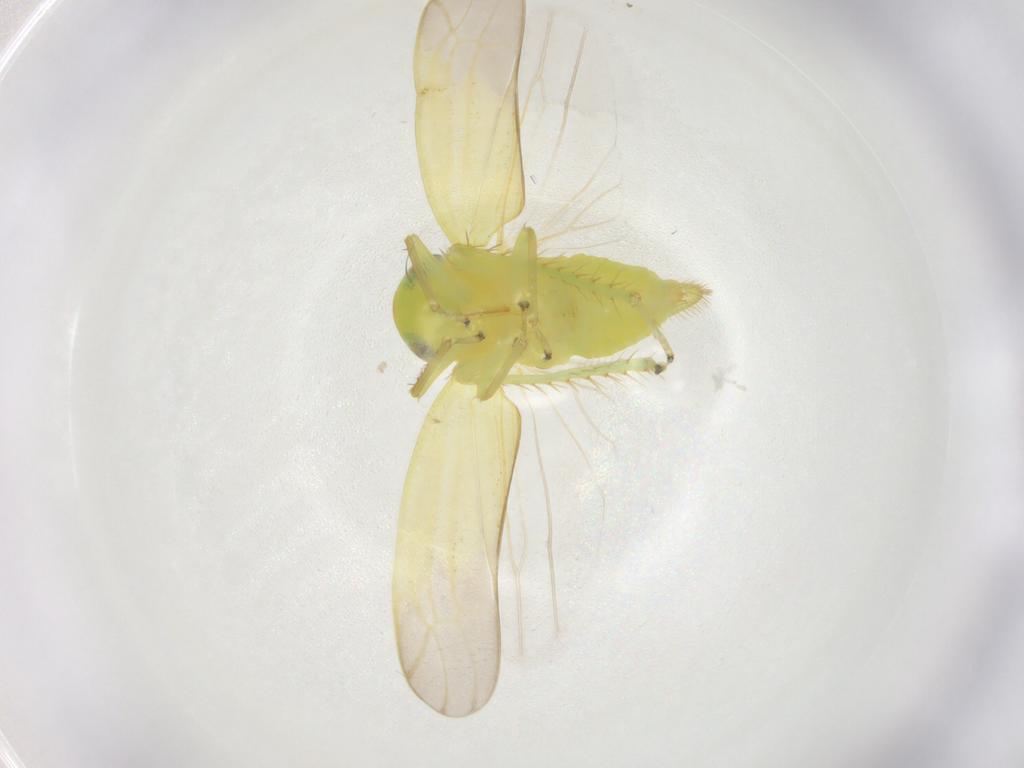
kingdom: Animalia
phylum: Arthropoda
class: Insecta
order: Hemiptera
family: Cicadellidae
